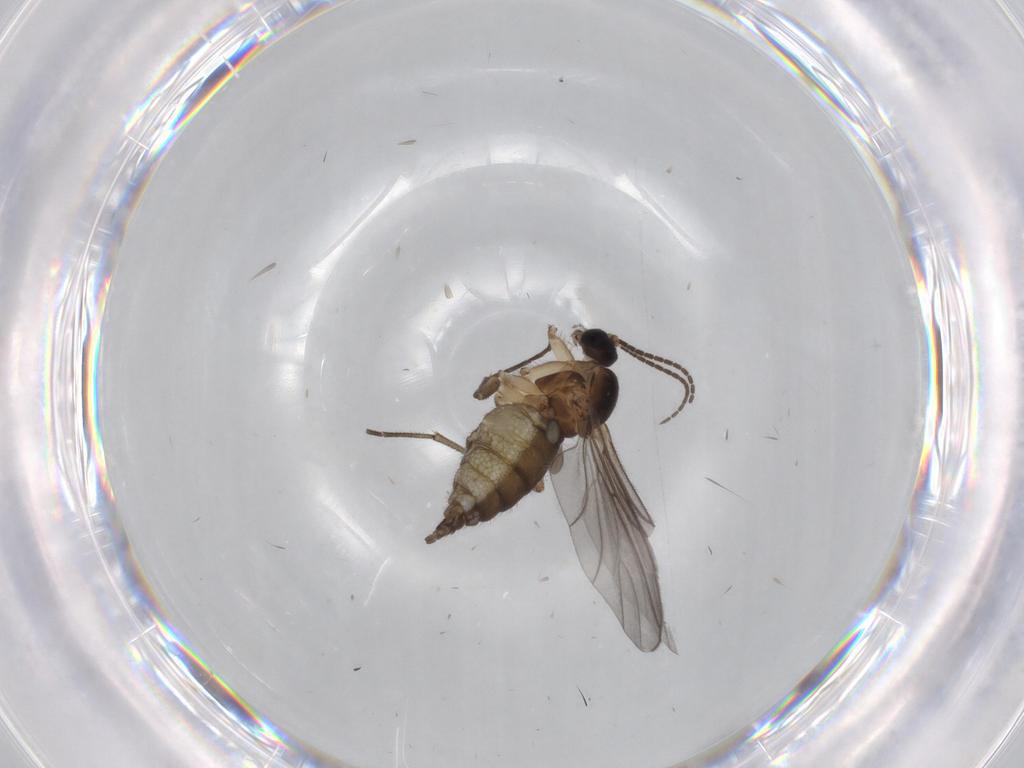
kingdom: Animalia
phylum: Arthropoda
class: Insecta
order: Diptera
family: Sciaridae
